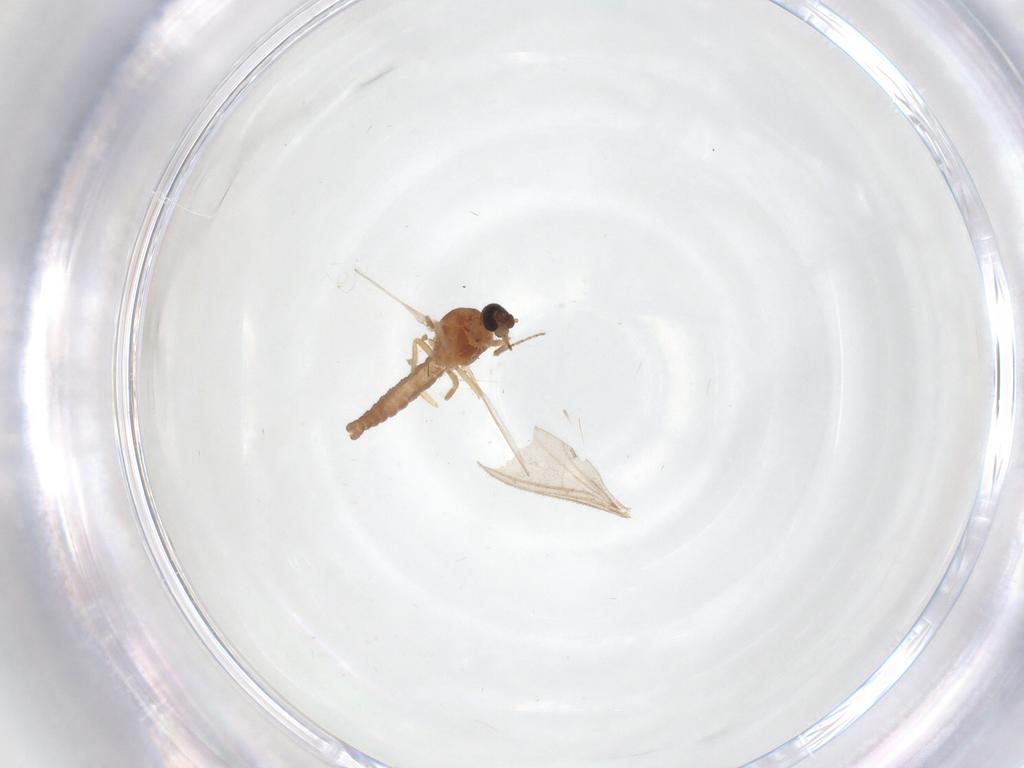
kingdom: Animalia
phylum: Arthropoda
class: Insecta
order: Diptera
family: Ceratopogonidae
